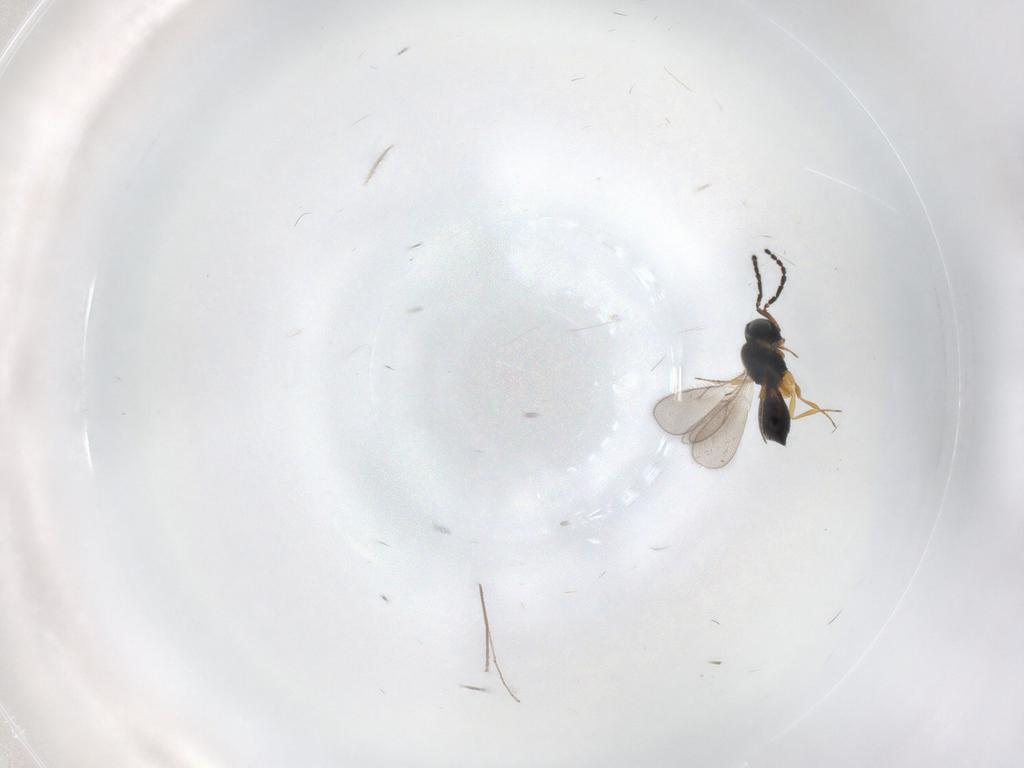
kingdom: Animalia
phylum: Arthropoda
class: Insecta
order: Hymenoptera
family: Scelionidae
